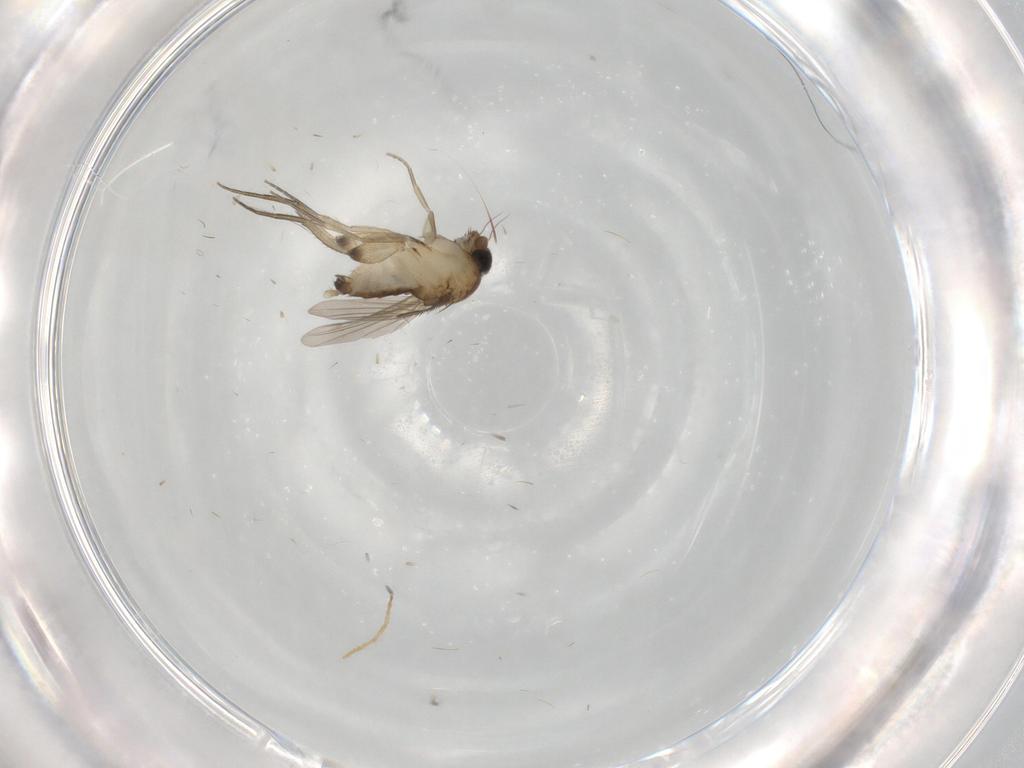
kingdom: Animalia
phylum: Arthropoda
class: Insecta
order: Diptera
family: Phoridae
